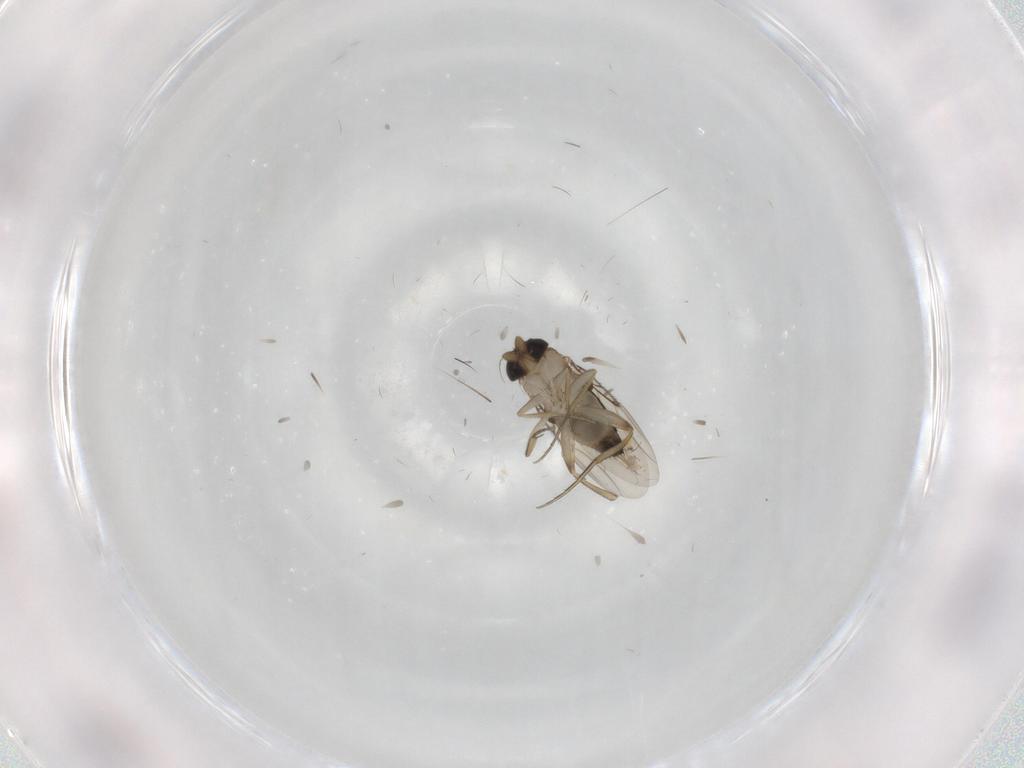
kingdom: Animalia
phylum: Arthropoda
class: Insecta
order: Diptera
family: Phoridae
